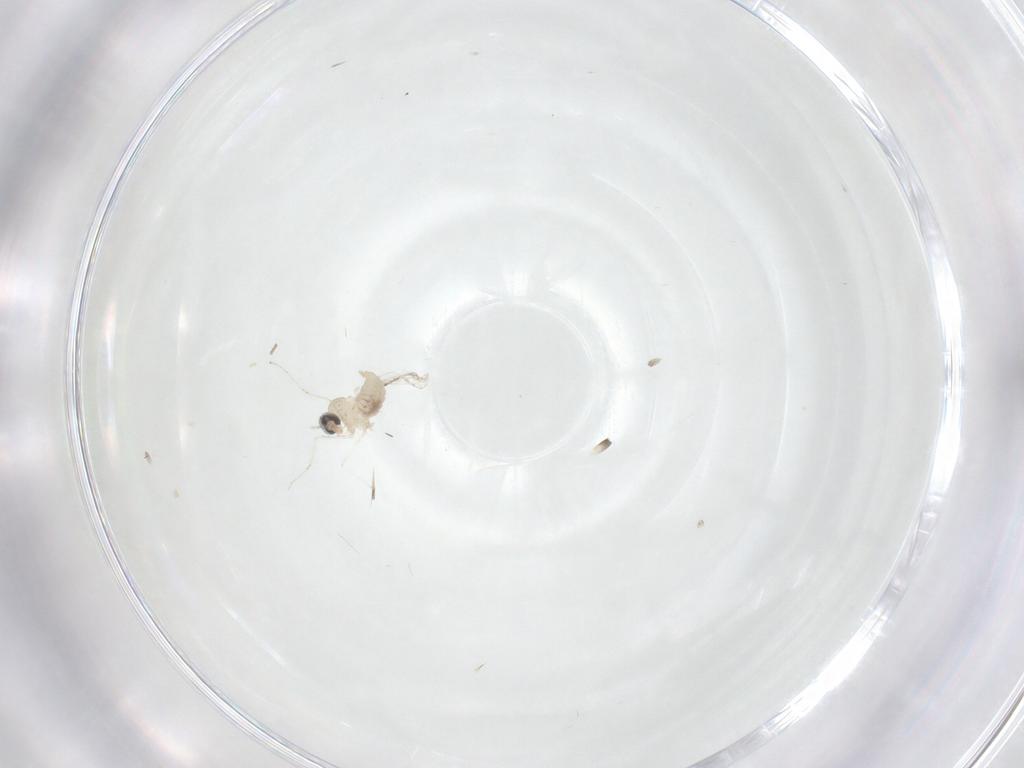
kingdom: Animalia
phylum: Arthropoda
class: Insecta
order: Diptera
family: Cecidomyiidae
